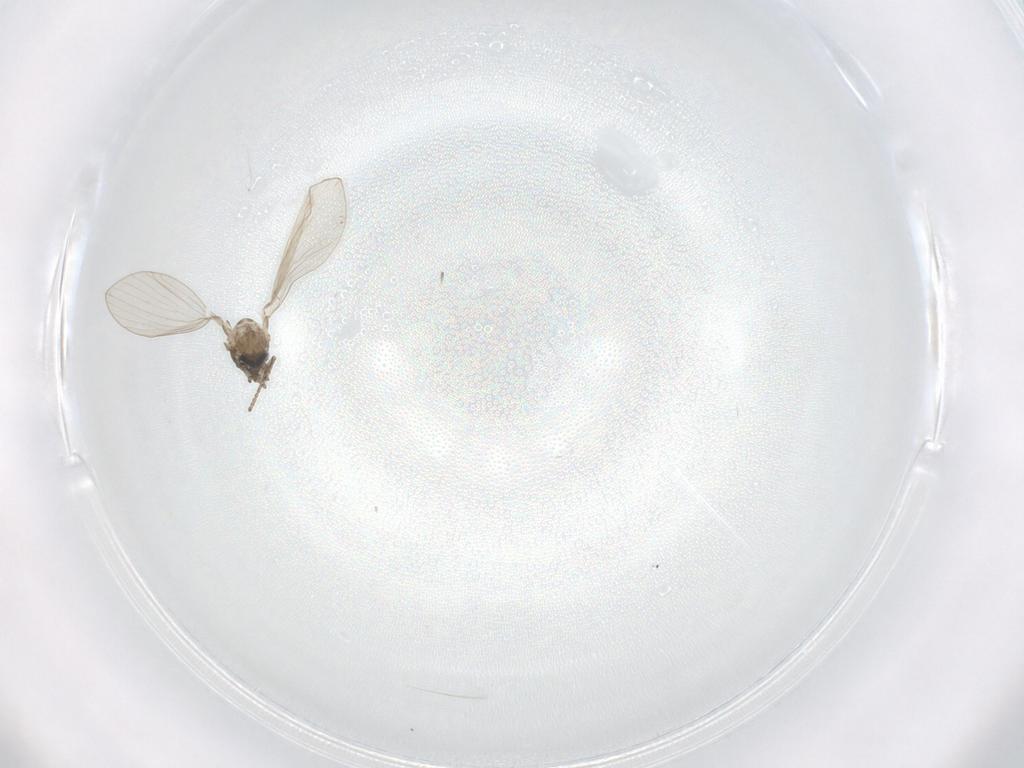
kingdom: Animalia
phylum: Arthropoda
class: Insecta
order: Diptera
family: Psychodidae
